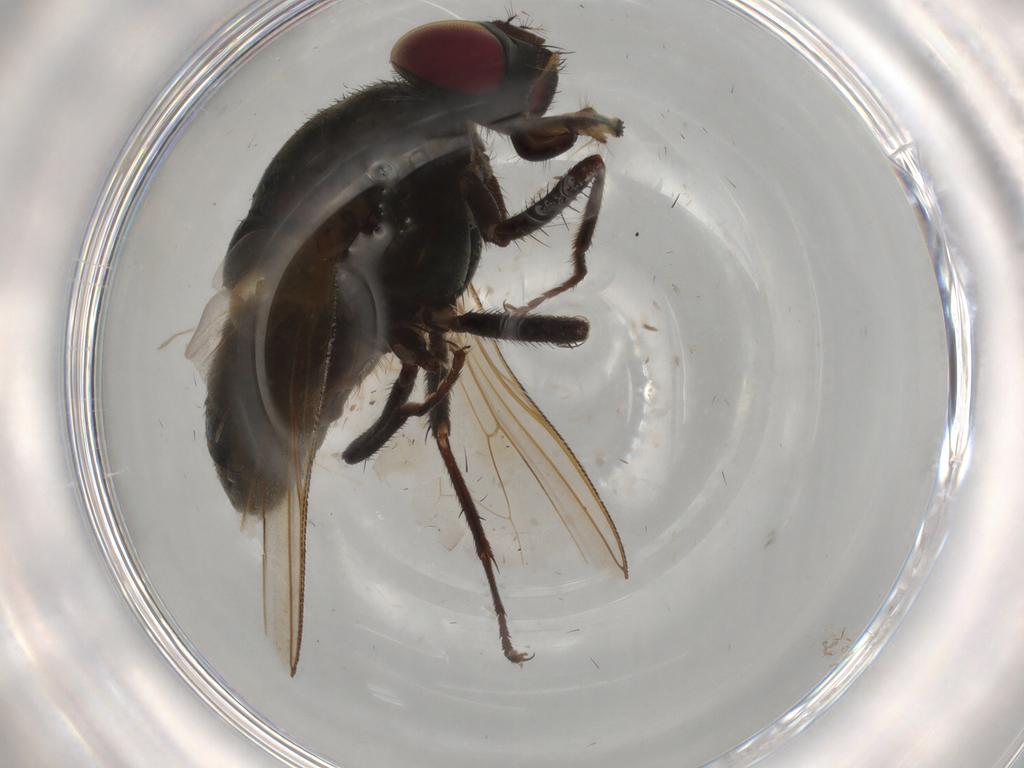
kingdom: Animalia
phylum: Arthropoda
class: Insecta
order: Diptera
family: Muscidae
